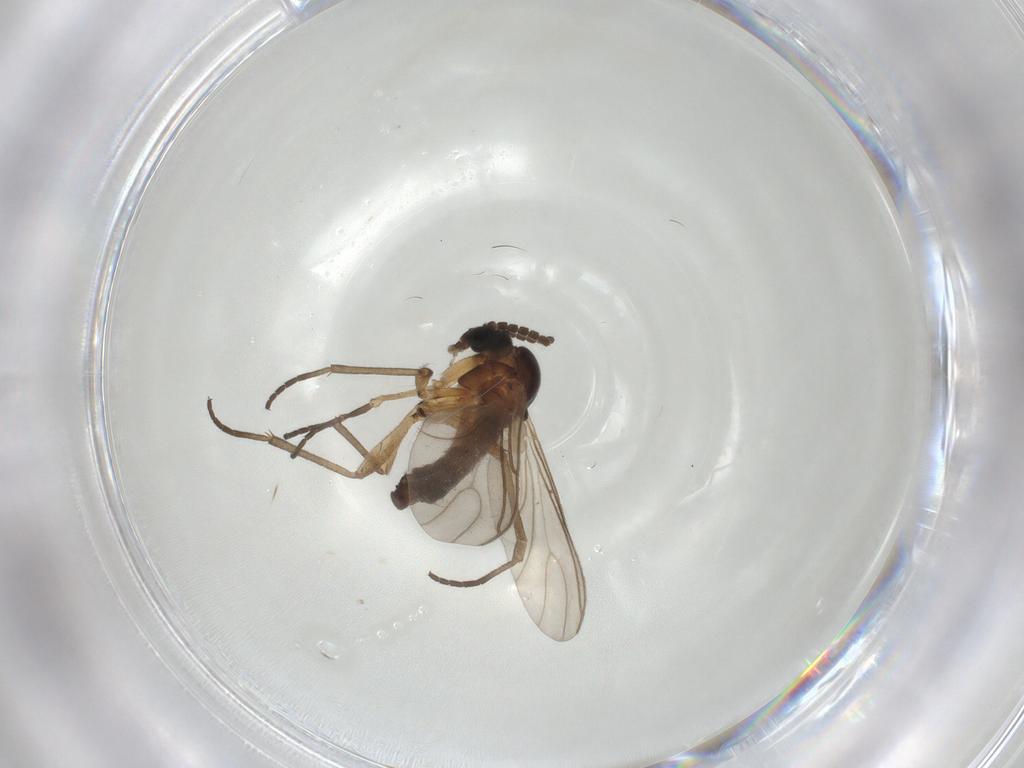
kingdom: Animalia
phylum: Arthropoda
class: Insecta
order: Diptera
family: Sciaridae
